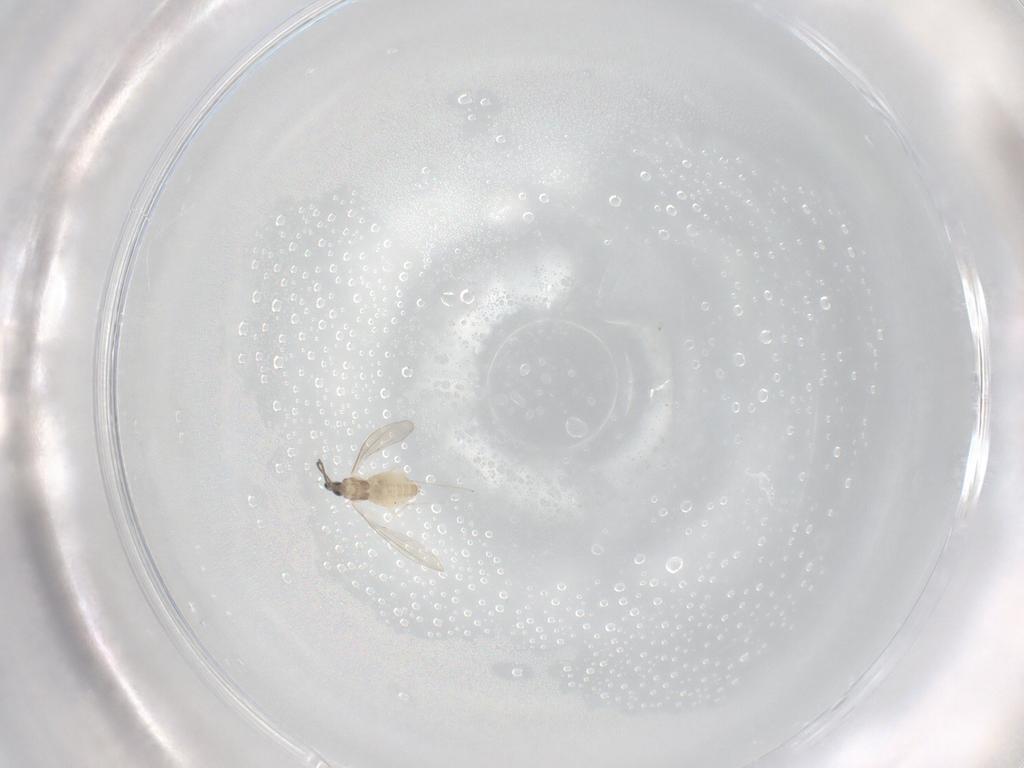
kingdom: Animalia
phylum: Arthropoda
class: Insecta
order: Diptera
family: Cecidomyiidae
